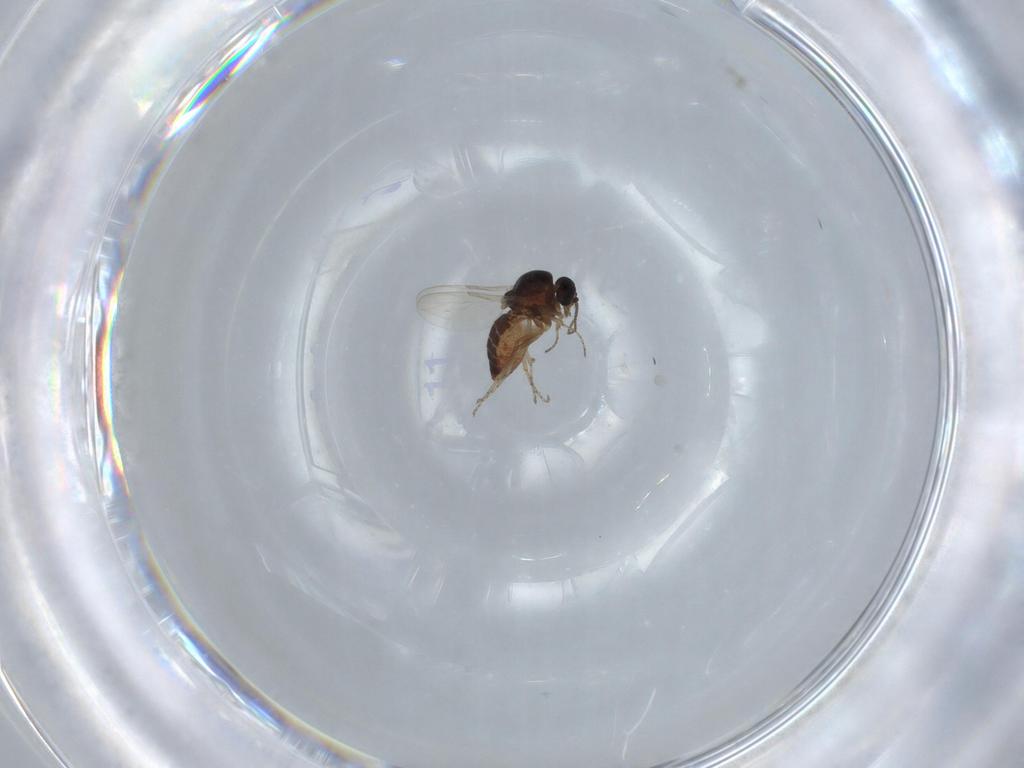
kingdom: Animalia
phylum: Arthropoda
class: Insecta
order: Diptera
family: Ceratopogonidae
